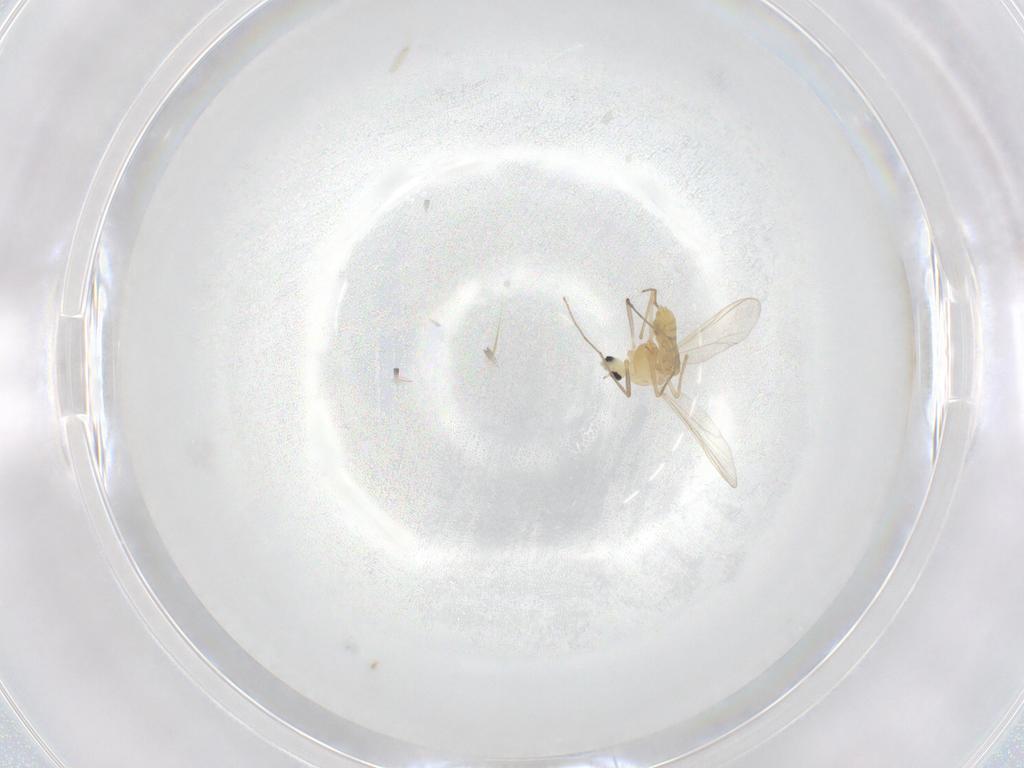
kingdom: Animalia
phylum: Arthropoda
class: Insecta
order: Diptera
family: Chironomidae
